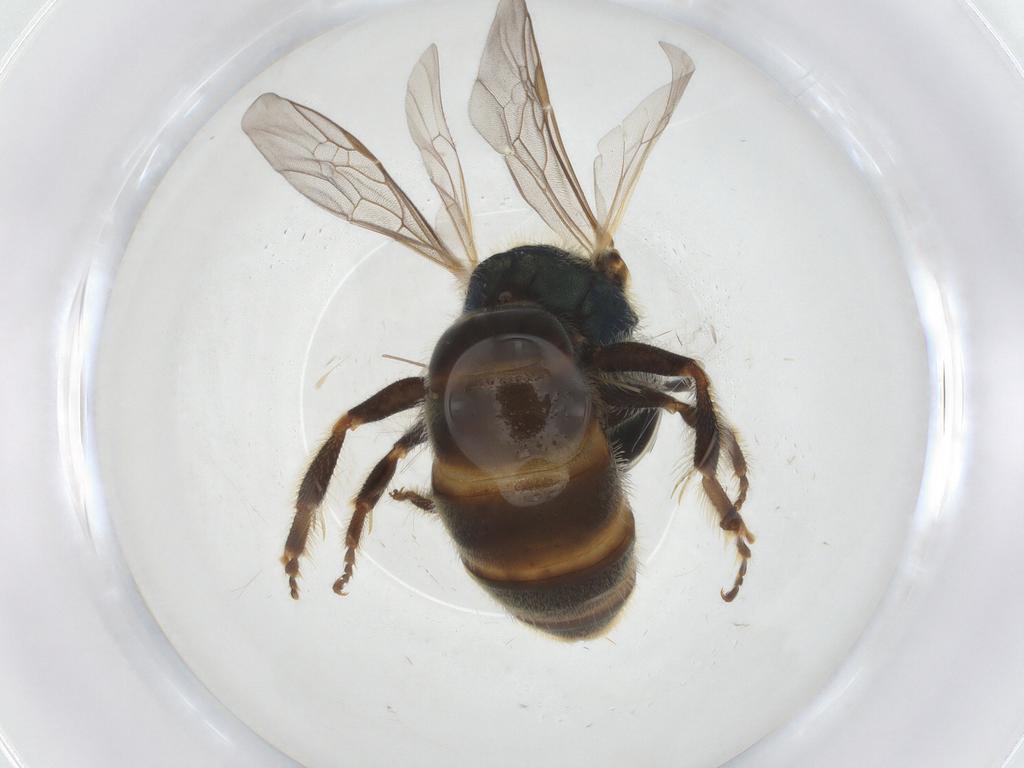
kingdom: Animalia
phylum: Arthropoda
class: Insecta
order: Hymenoptera
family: Halictidae
